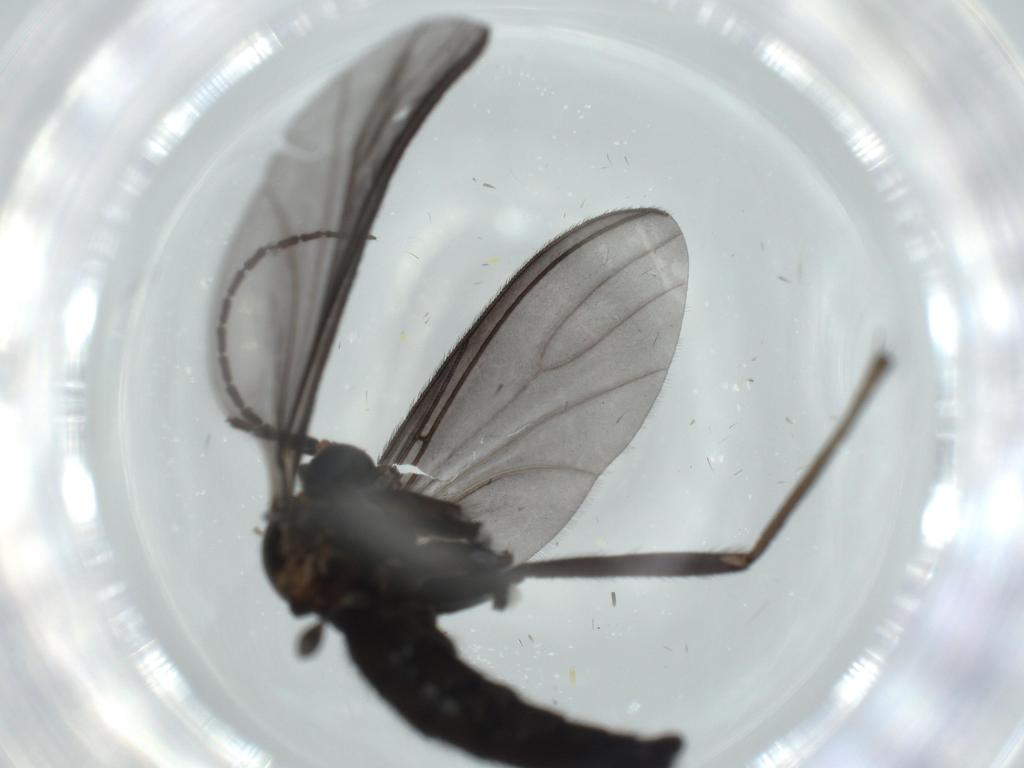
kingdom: Animalia
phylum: Arthropoda
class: Insecta
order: Diptera
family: Sciaridae
